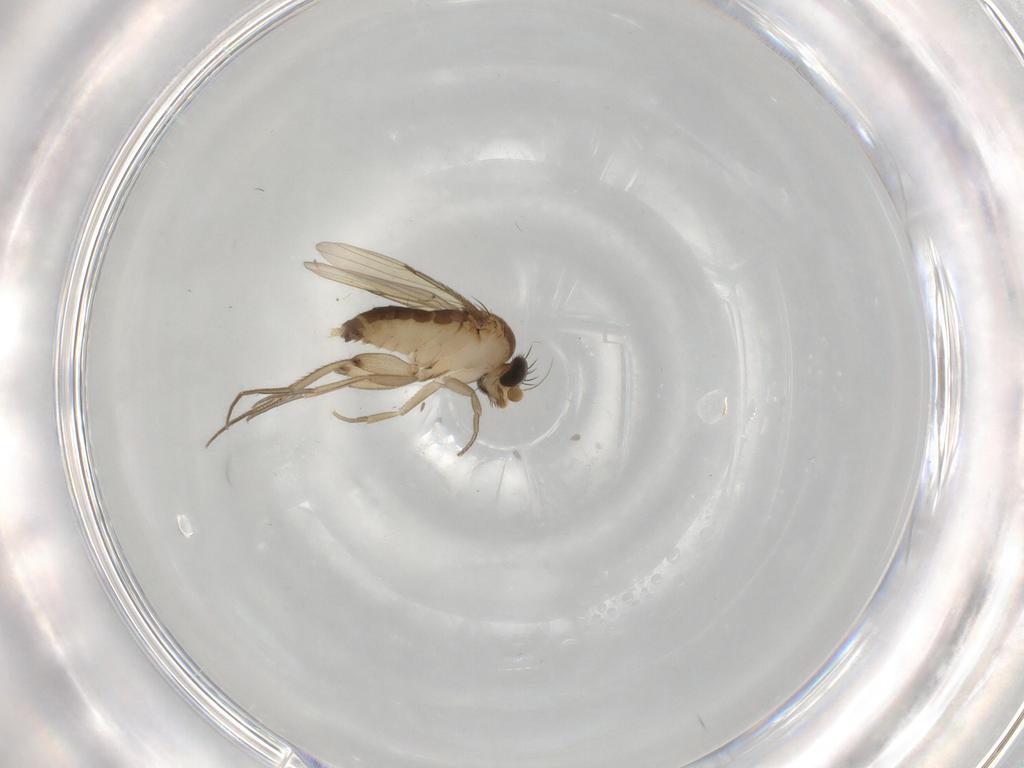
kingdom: Animalia
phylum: Arthropoda
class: Insecta
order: Diptera
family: Phoridae
